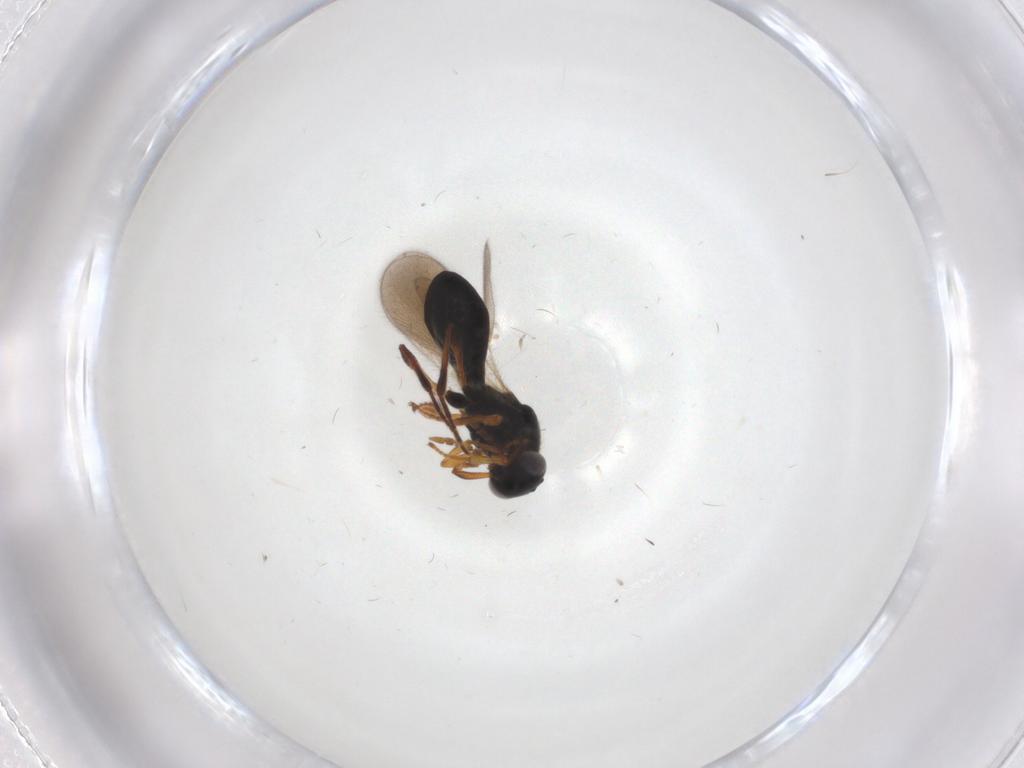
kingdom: Animalia
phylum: Arthropoda
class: Insecta
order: Hymenoptera
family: Platygastridae
